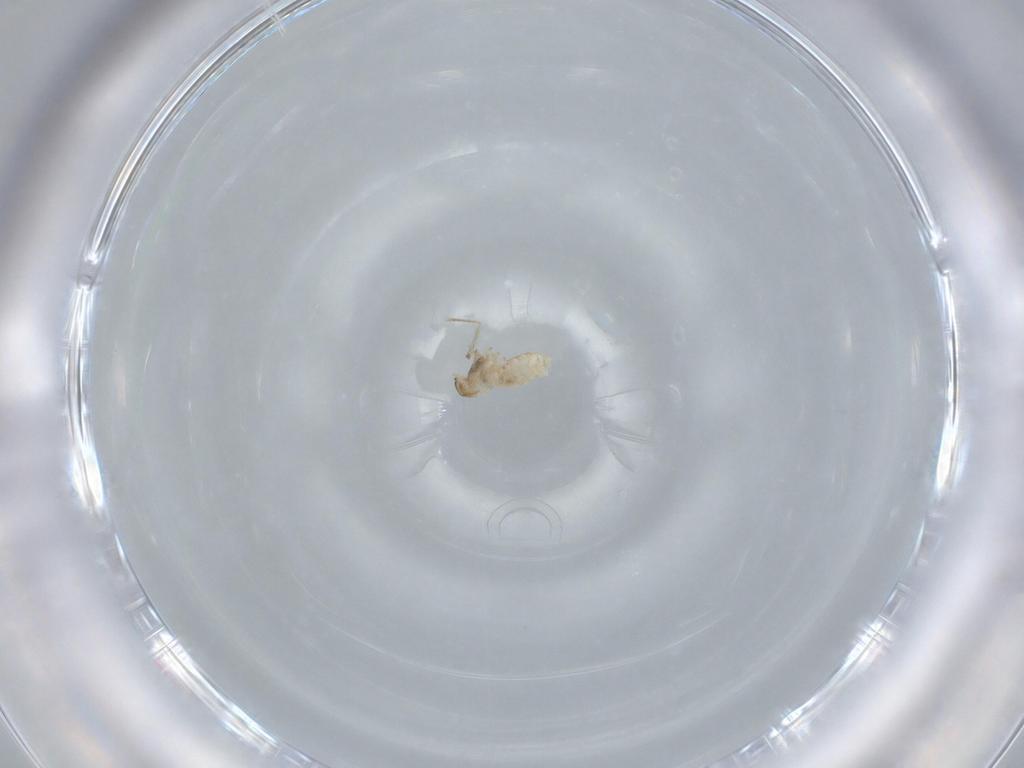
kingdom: Animalia
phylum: Arthropoda
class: Insecta
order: Diptera
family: Cecidomyiidae
